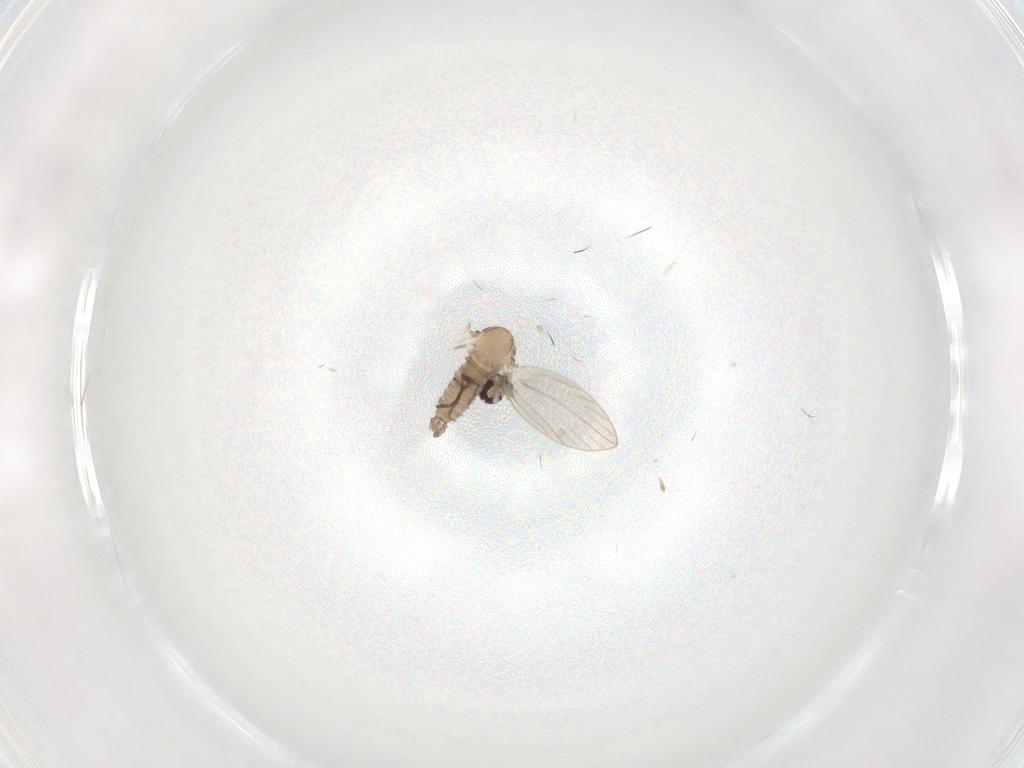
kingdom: Animalia
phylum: Arthropoda
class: Insecta
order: Diptera
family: Psychodidae
